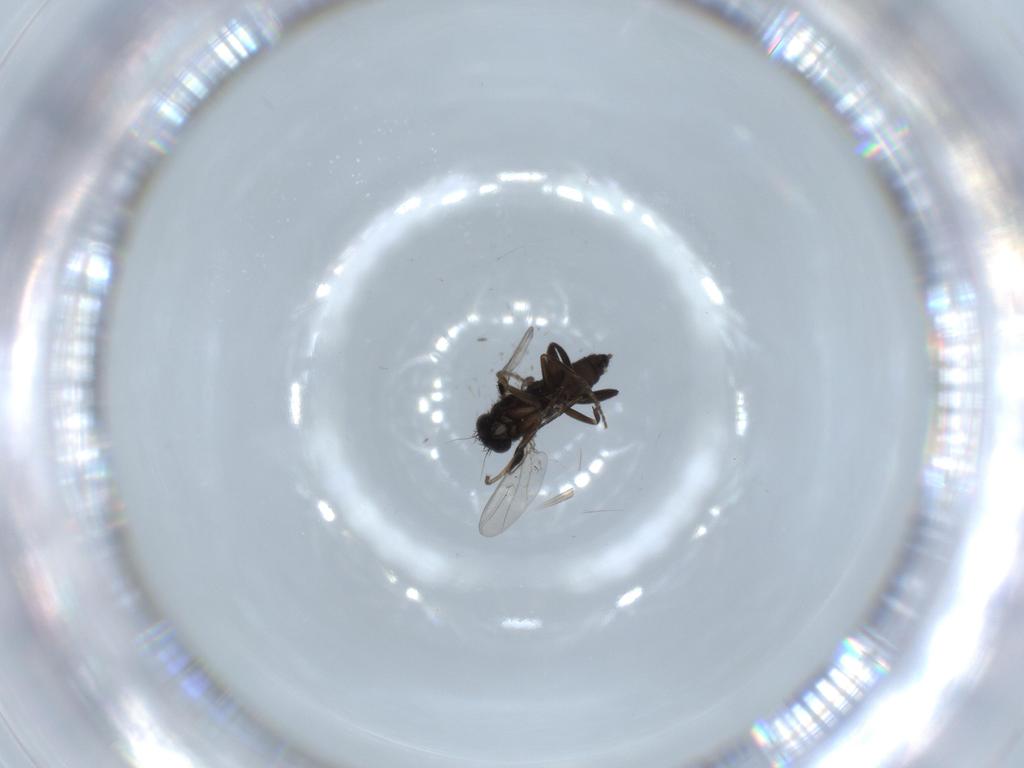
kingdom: Animalia
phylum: Arthropoda
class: Insecta
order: Diptera
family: Phoridae
